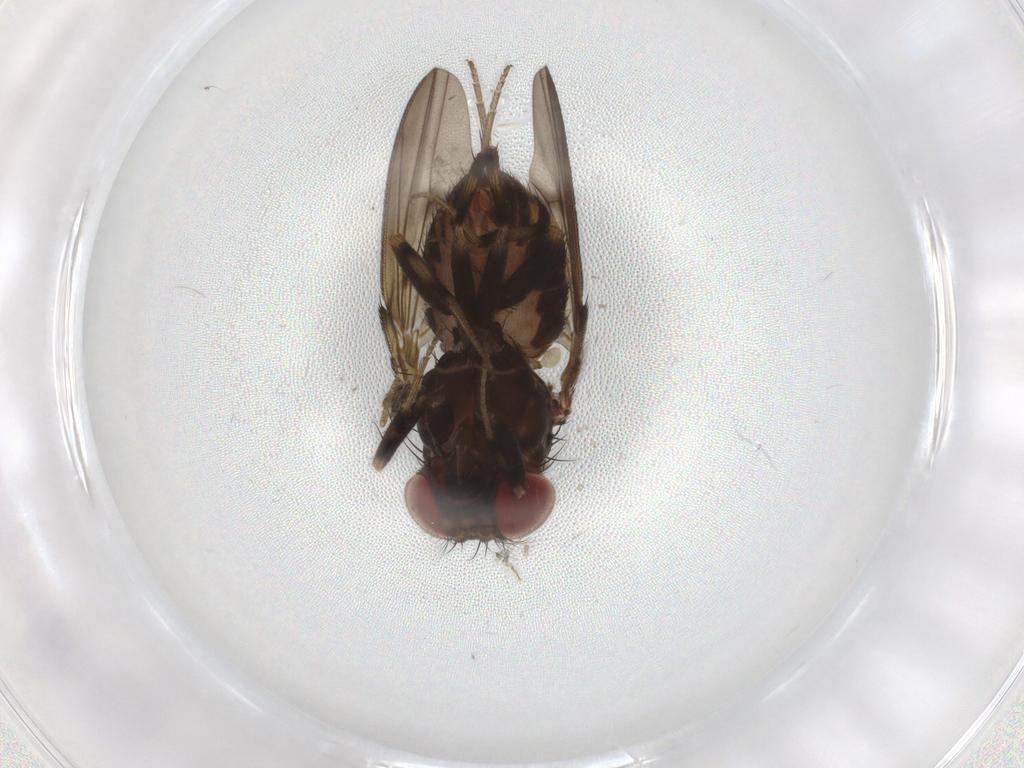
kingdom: Animalia
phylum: Arthropoda
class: Insecta
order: Diptera
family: Drosophilidae
